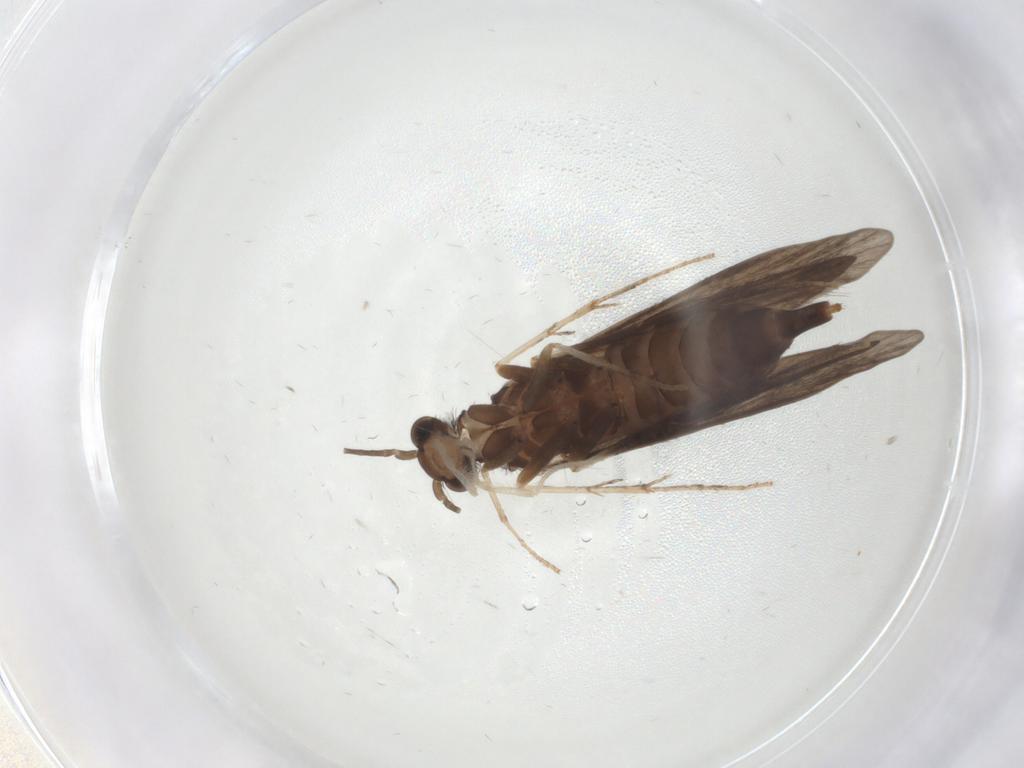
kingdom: Animalia
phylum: Arthropoda
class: Insecta
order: Trichoptera
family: Xiphocentronidae
